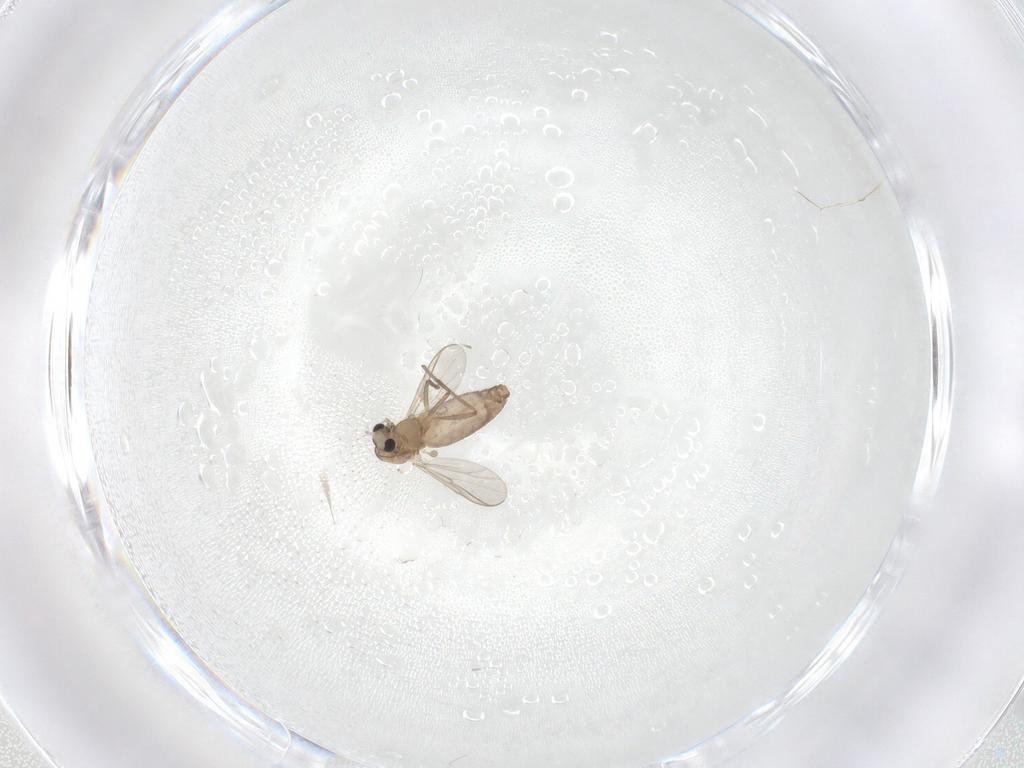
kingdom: Animalia
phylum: Arthropoda
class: Insecta
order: Diptera
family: Chironomidae
